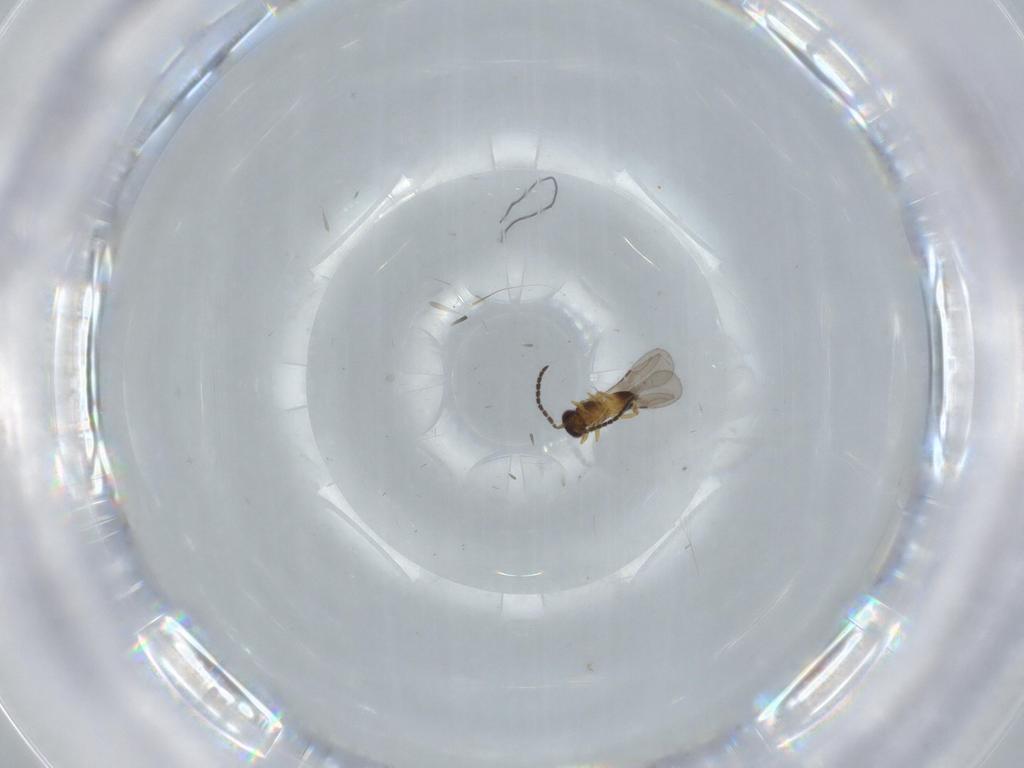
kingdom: Animalia
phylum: Arthropoda
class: Insecta
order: Hymenoptera
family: Ceraphronidae
